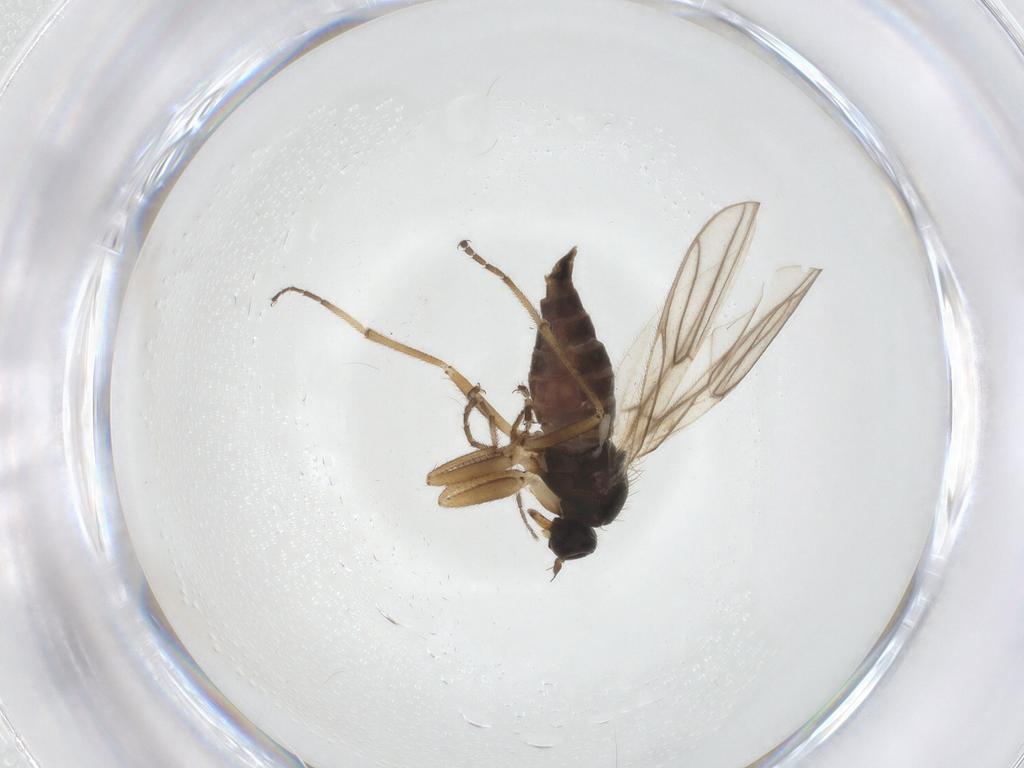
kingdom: Animalia
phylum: Arthropoda
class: Insecta
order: Diptera
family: Hybotidae
